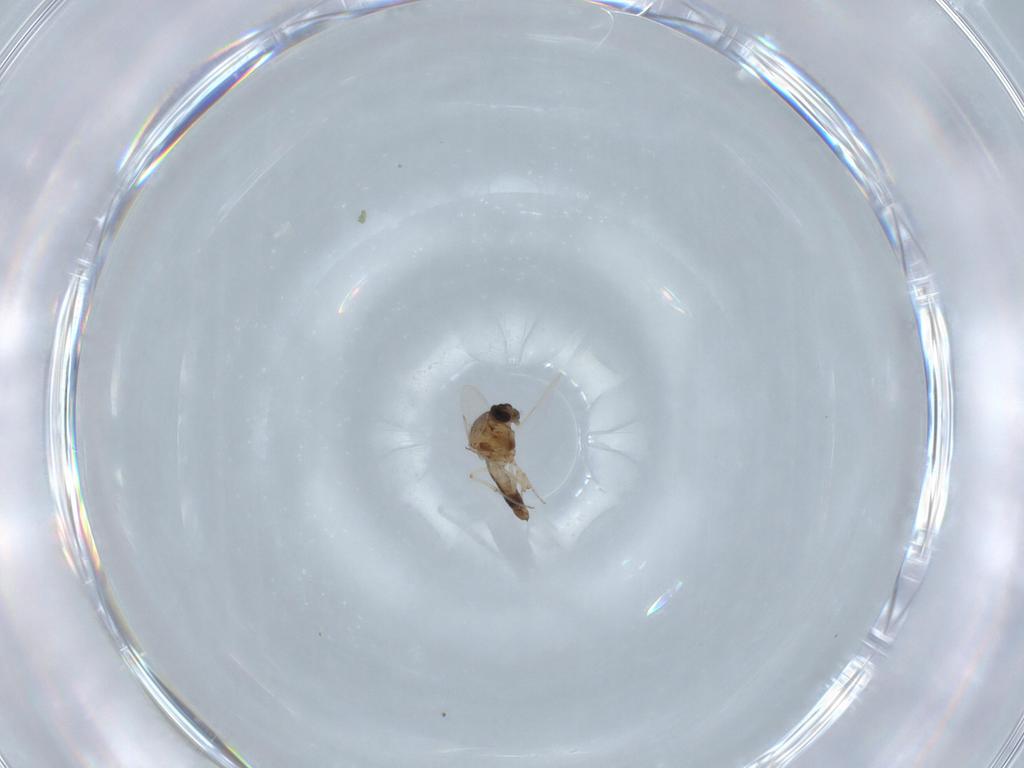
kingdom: Animalia
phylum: Arthropoda
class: Insecta
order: Diptera
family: Ceratopogonidae
